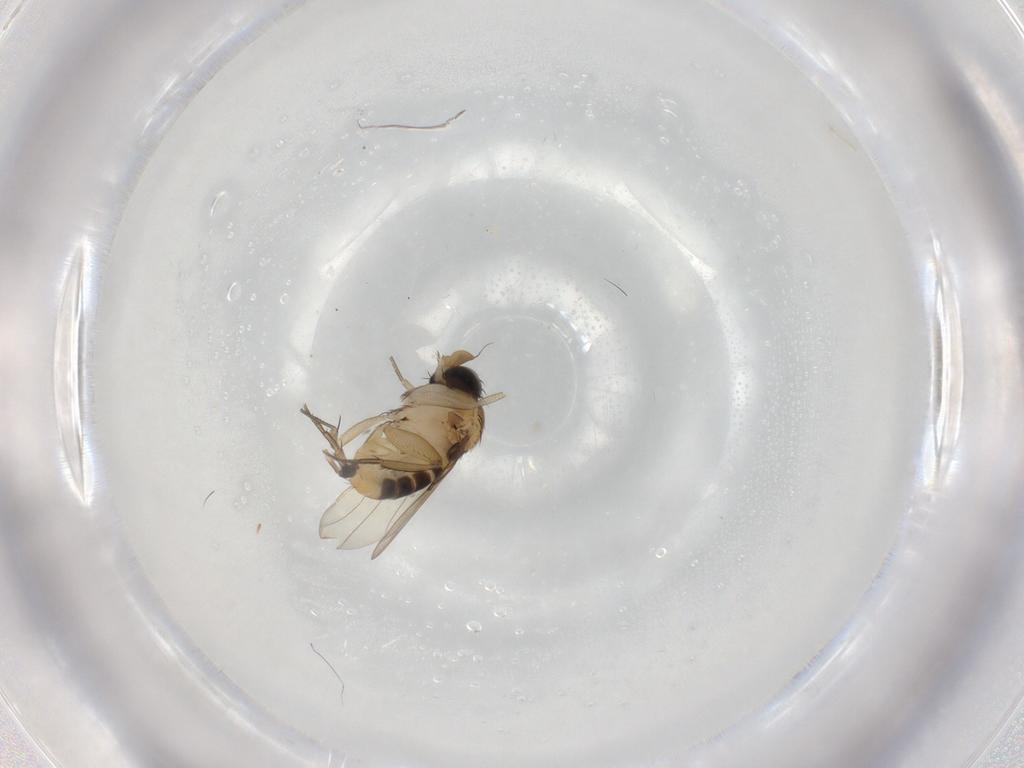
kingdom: Animalia
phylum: Arthropoda
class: Insecta
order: Diptera
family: Phoridae
